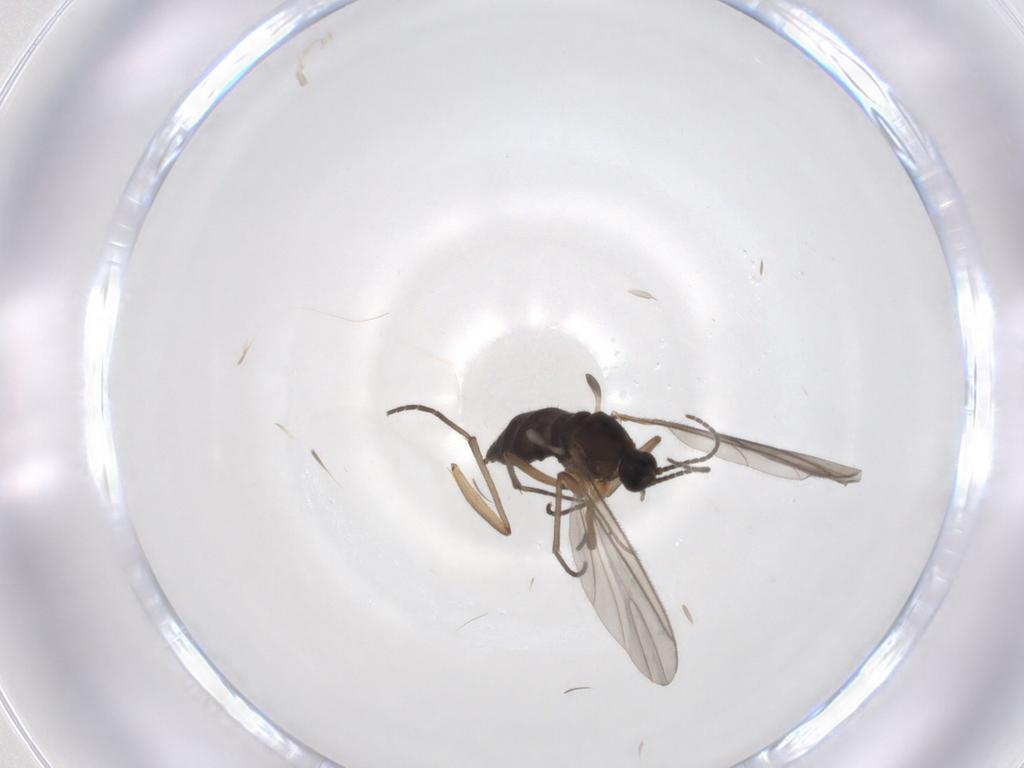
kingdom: Animalia
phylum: Arthropoda
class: Insecta
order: Diptera
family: Sciaridae
